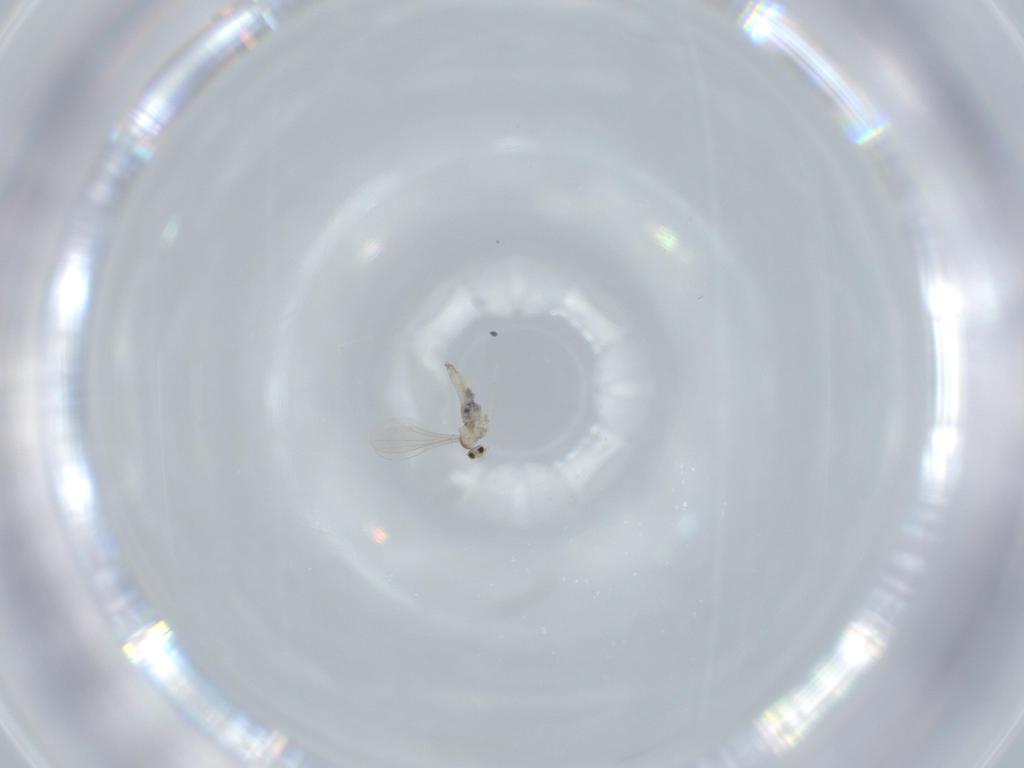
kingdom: Animalia
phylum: Arthropoda
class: Insecta
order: Diptera
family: Cecidomyiidae
